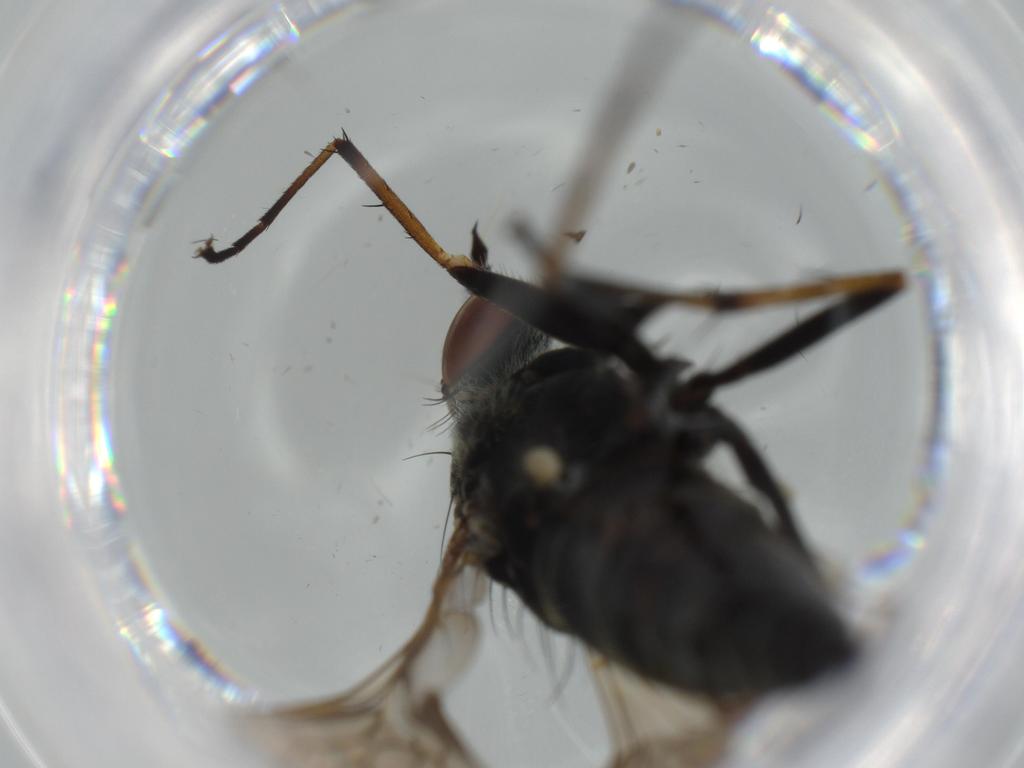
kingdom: Animalia
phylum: Arthropoda
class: Insecta
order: Diptera
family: Therevidae
